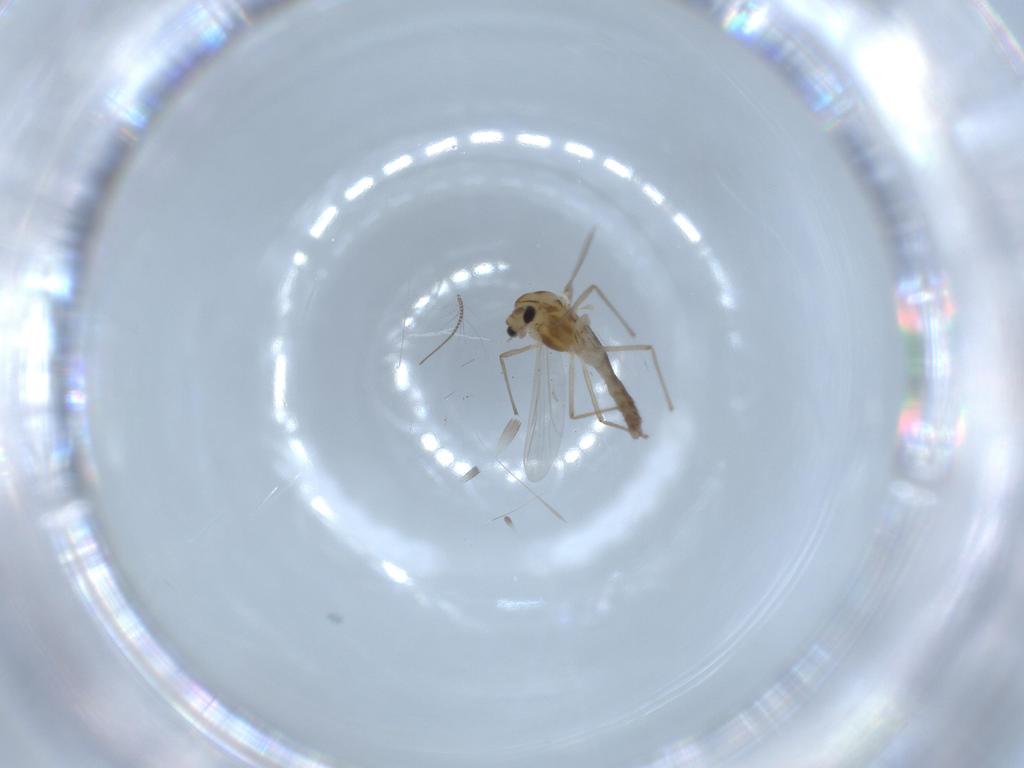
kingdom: Animalia
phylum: Arthropoda
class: Insecta
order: Diptera
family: Chironomidae
